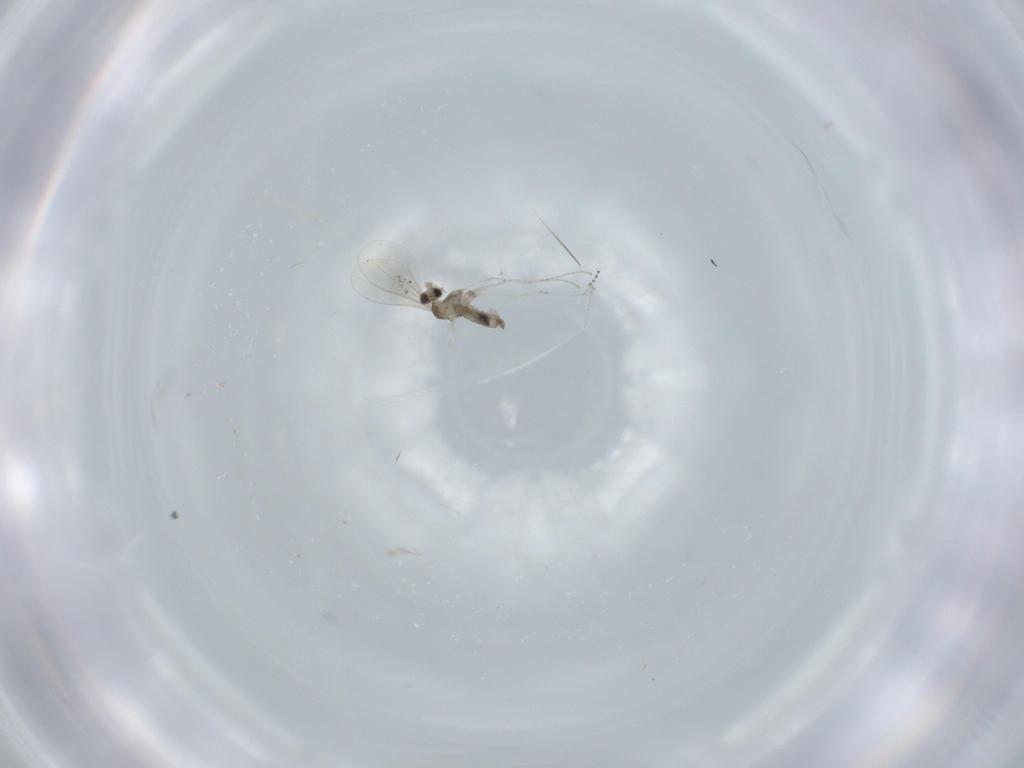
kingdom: Animalia
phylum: Arthropoda
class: Insecta
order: Diptera
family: Cecidomyiidae
